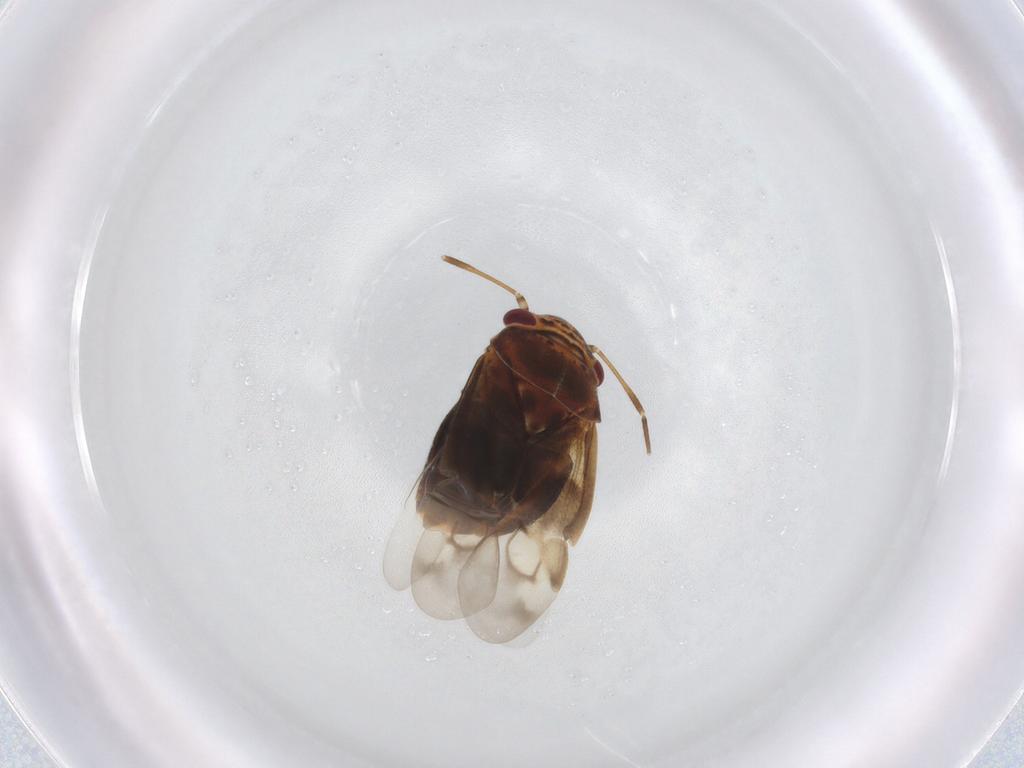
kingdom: Animalia
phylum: Arthropoda
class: Insecta
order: Hemiptera
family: Miridae
